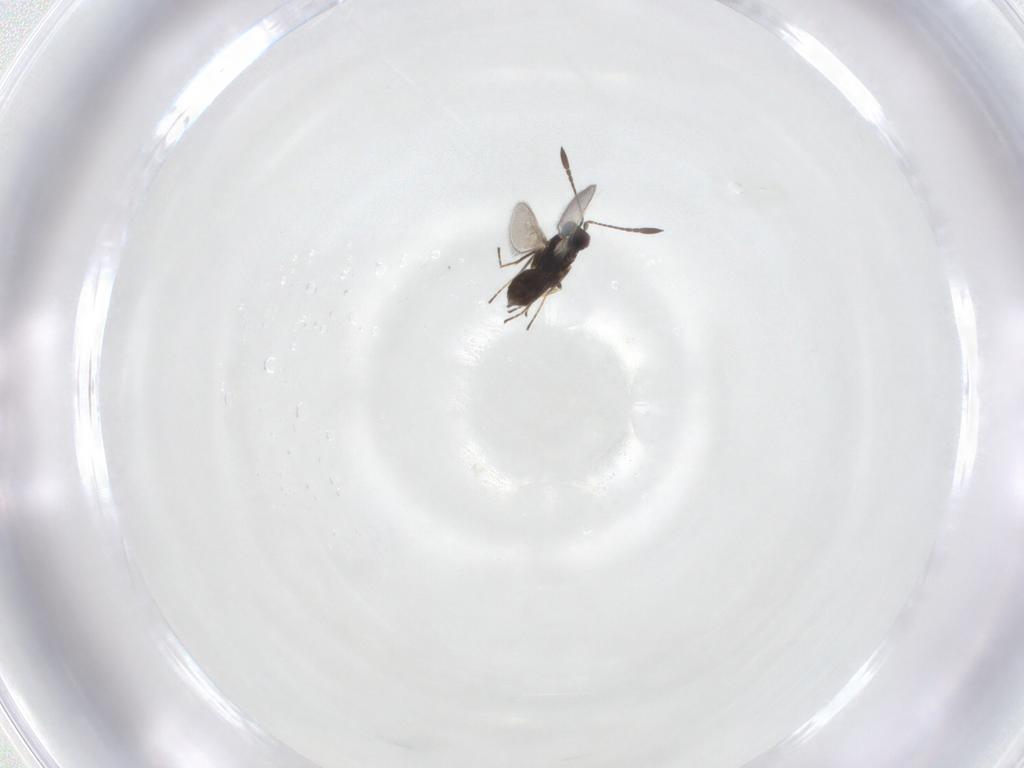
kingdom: Animalia
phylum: Arthropoda
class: Insecta
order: Hymenoptera
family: Mymaridae
